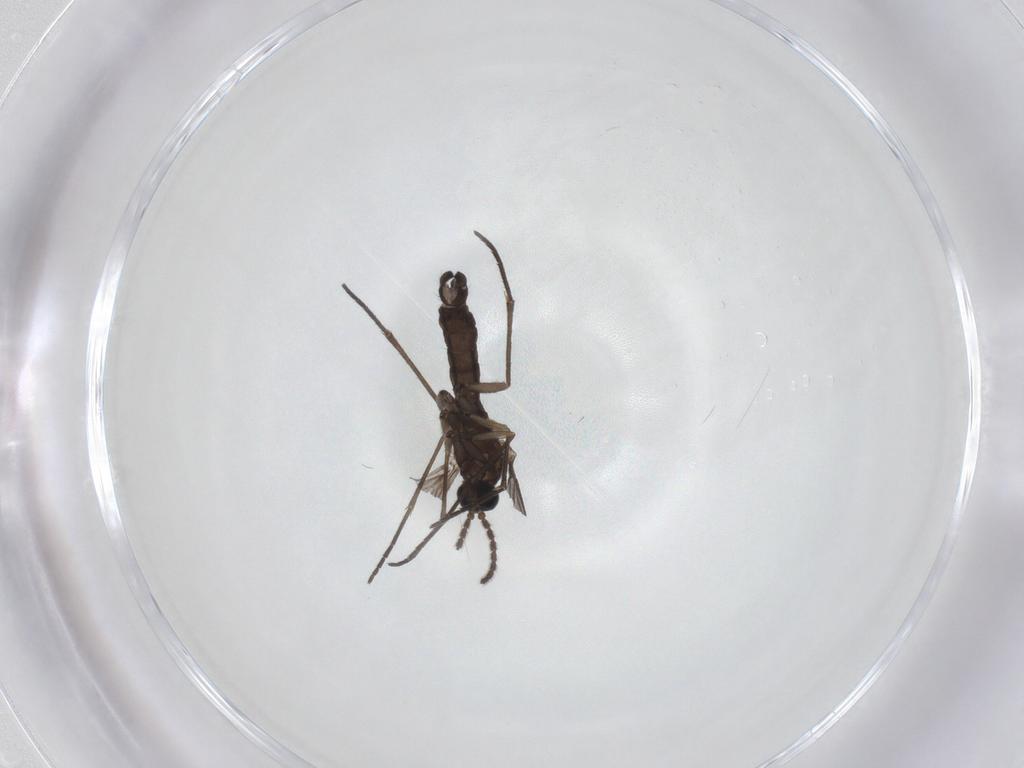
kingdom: Animalia
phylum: Arthropoda
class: Insecta
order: Diptera
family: Sciaridae
